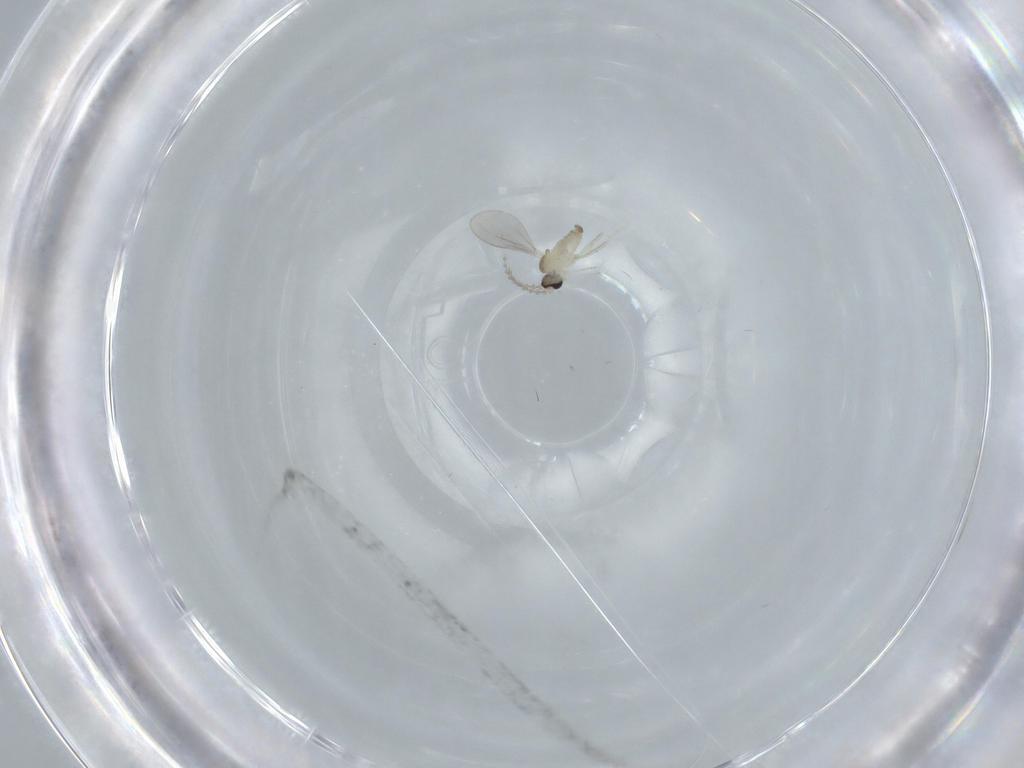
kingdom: Animalia
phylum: Arthropoda
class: Insecta
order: Diptera
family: Cecidomyiidae
